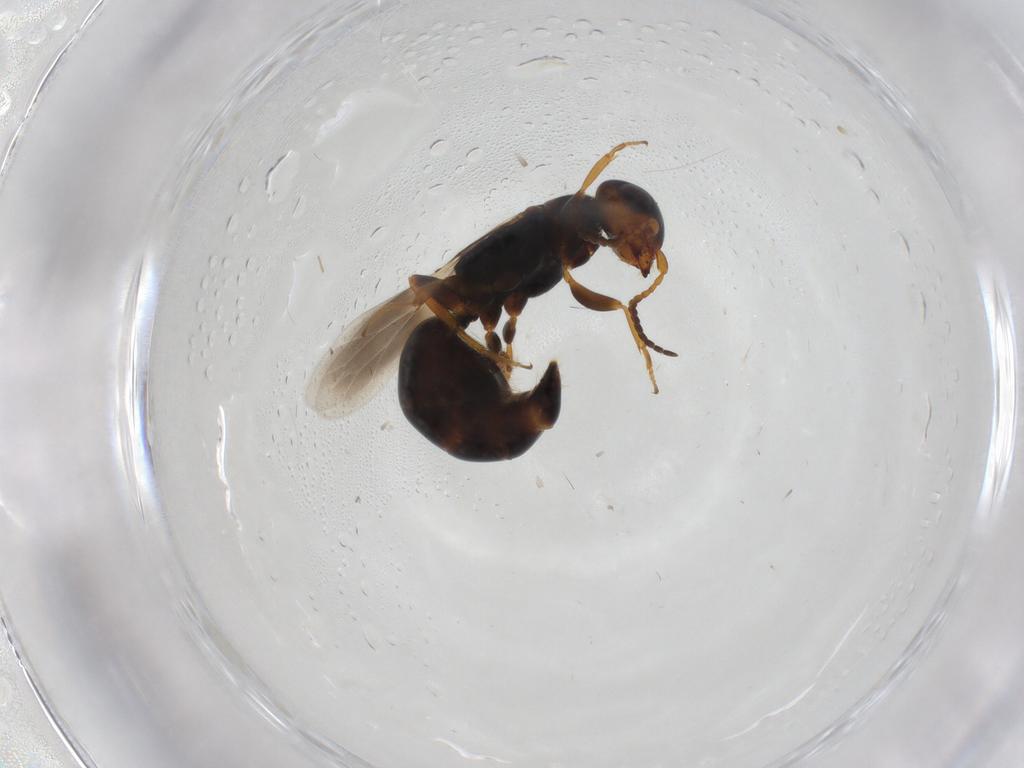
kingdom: Animalia
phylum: Arthropoda
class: Insecta
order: Hymenoptera
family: Bethylidae
